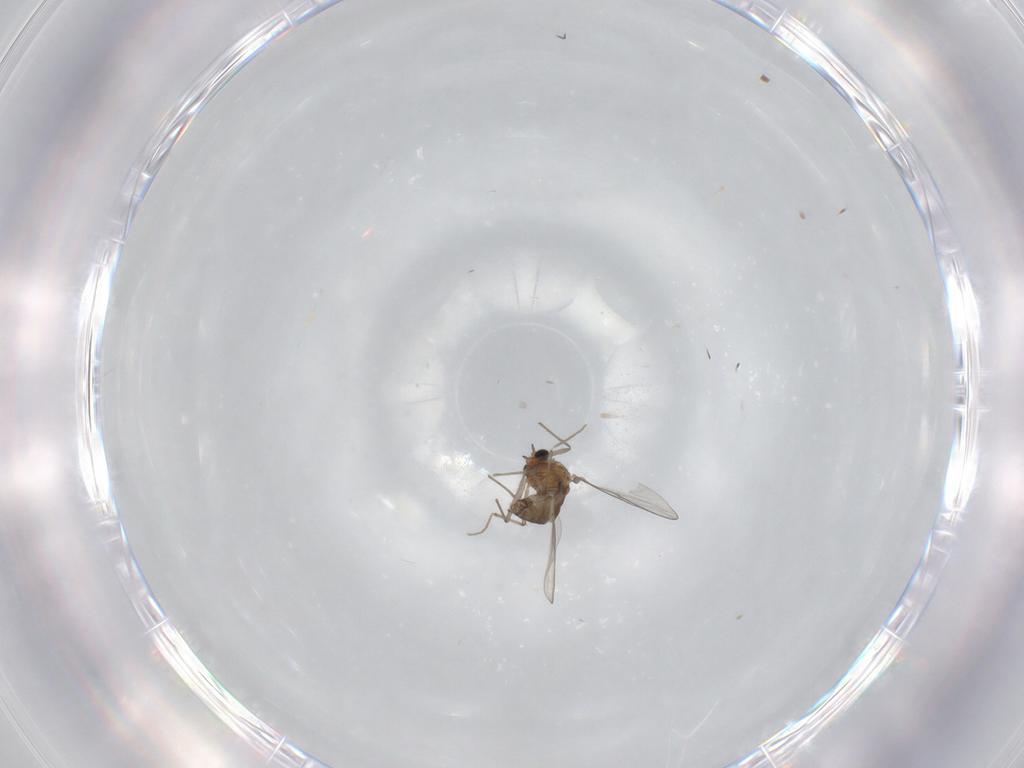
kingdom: Animalia
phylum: Arthropoda
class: Insecta
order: Diptera
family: Chironomidae
